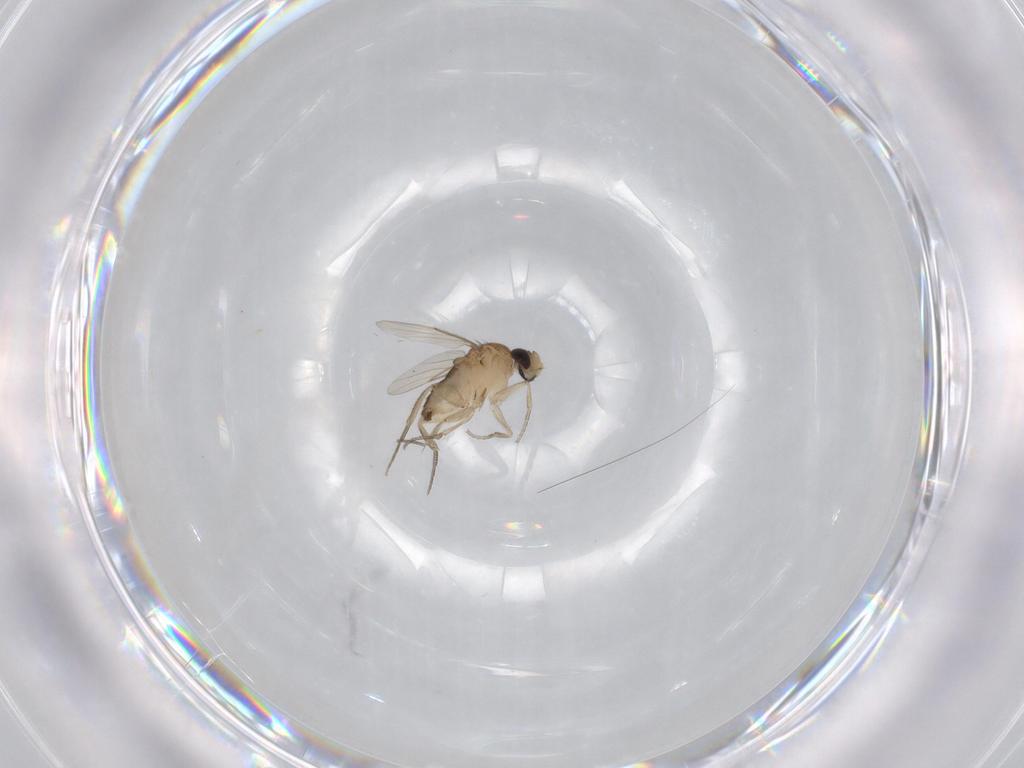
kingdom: Animalia
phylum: Arthropoda
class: Insecta
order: Diptera
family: Phoridae
